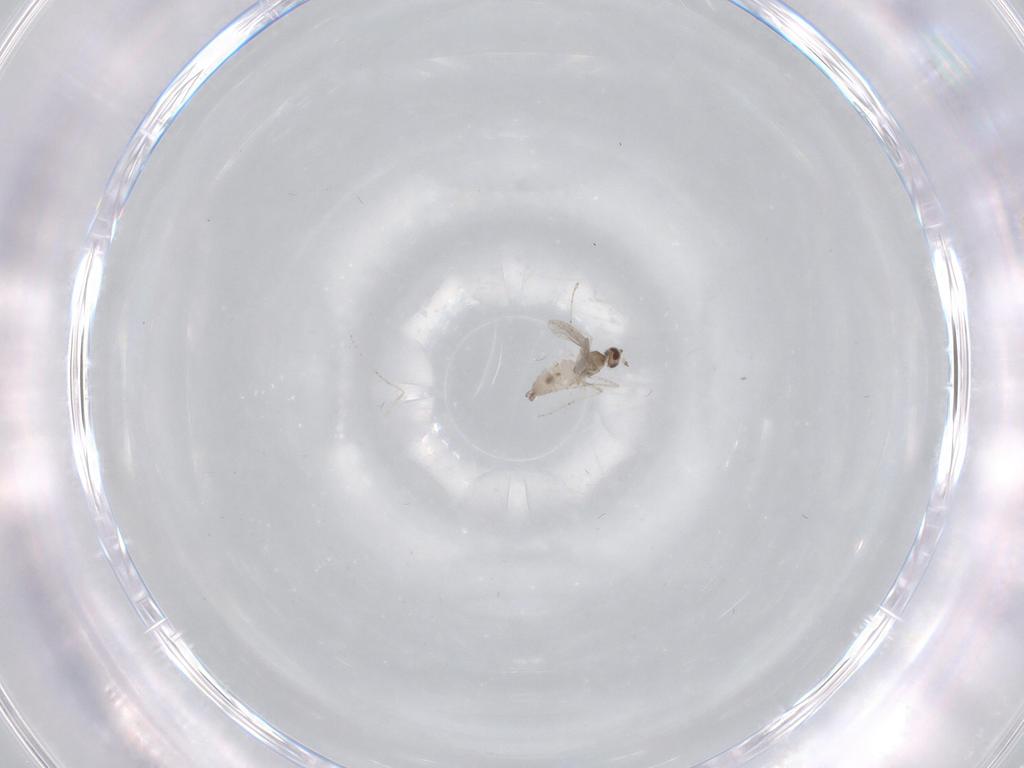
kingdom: Animalia
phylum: Arthropoda
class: Insecta
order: Diptera
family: Cecidomyiidae
